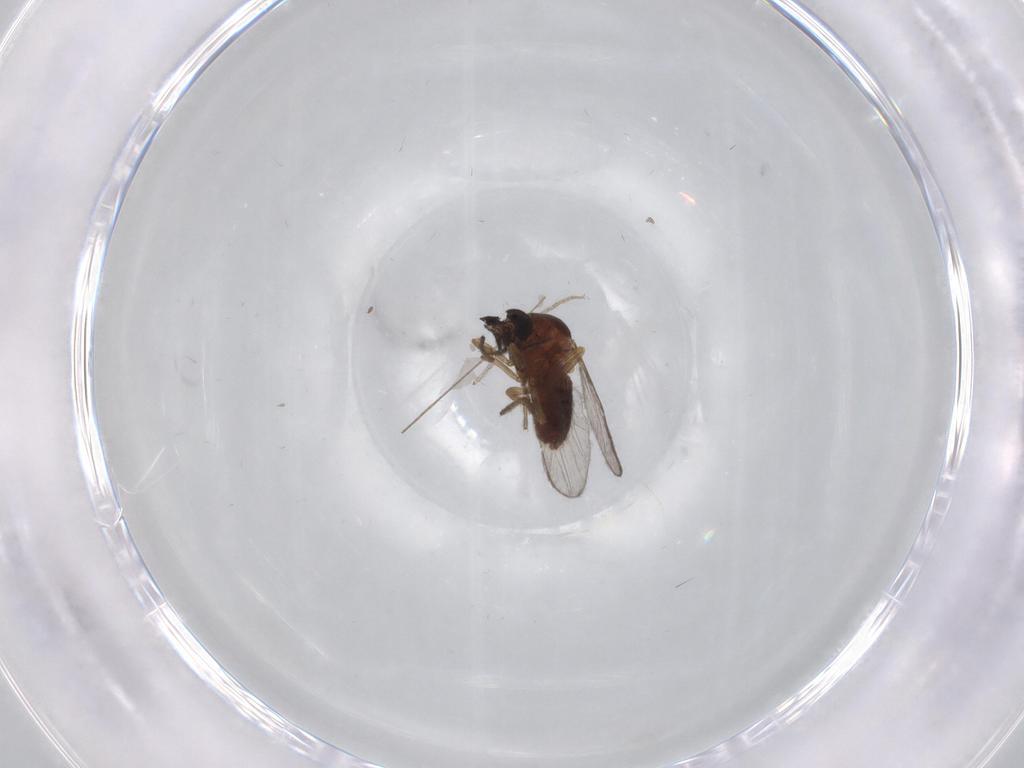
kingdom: Animalia
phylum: Arthropoda
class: Insecta
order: Diptera
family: Ceratopogonidae
